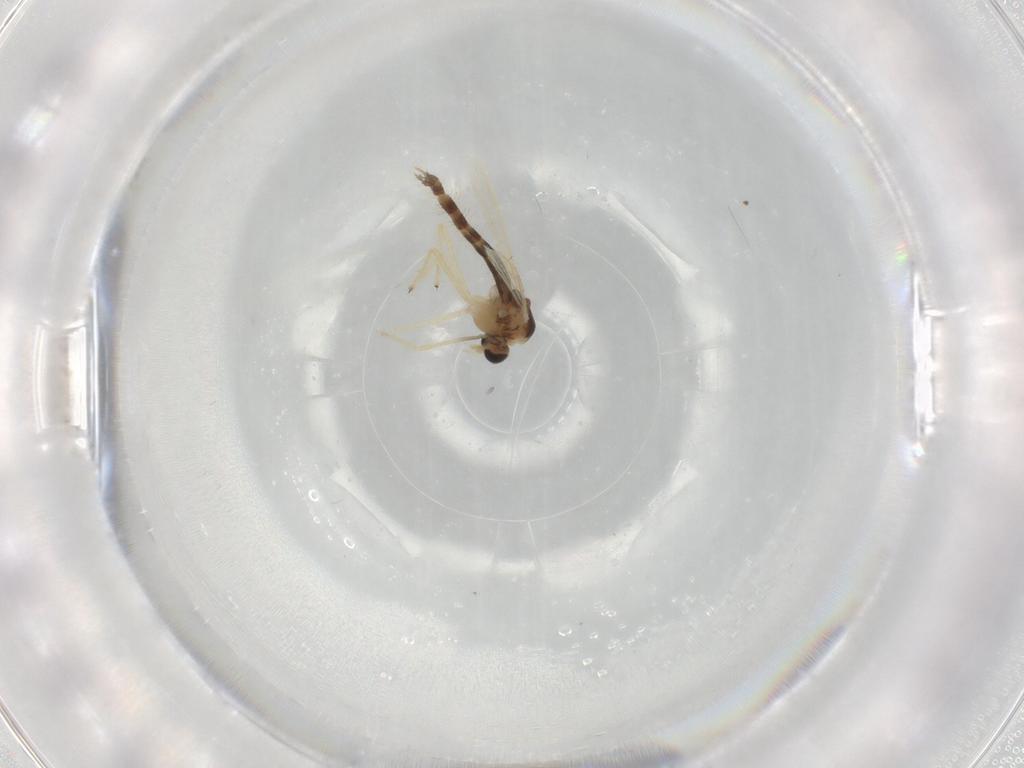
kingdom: Animalia
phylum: Arthropoda
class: Insecta
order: Diptera
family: Chironomidae
